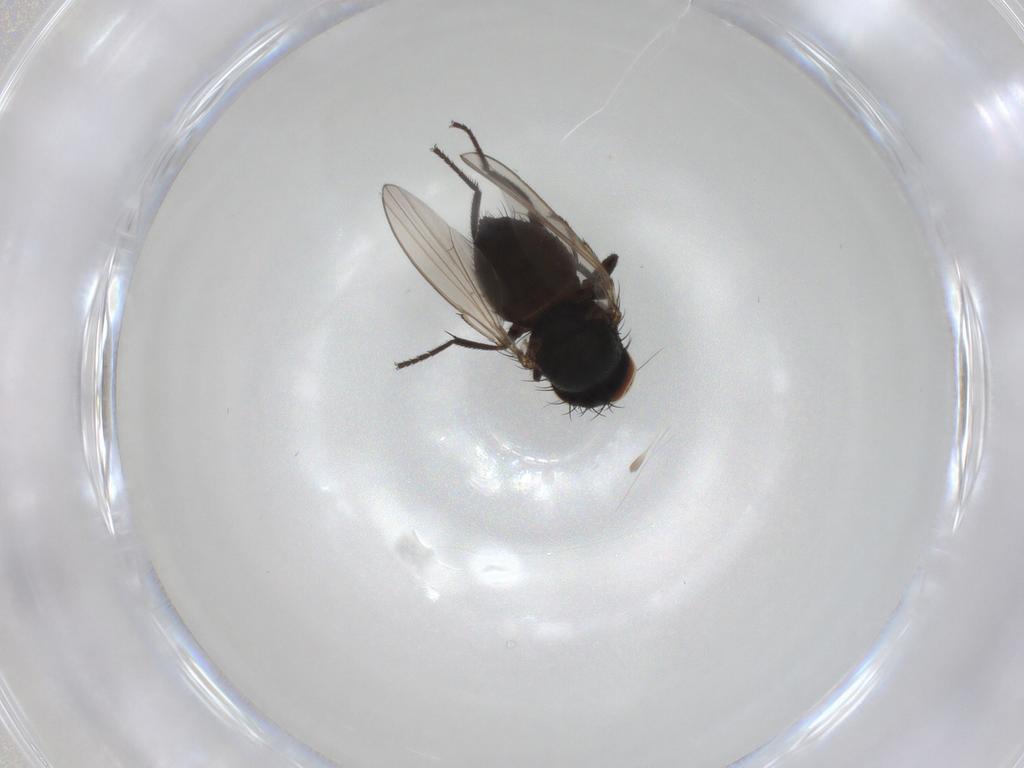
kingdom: Animalia
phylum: Arthropoda
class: Insecta
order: Diptera
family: Milichiidae
